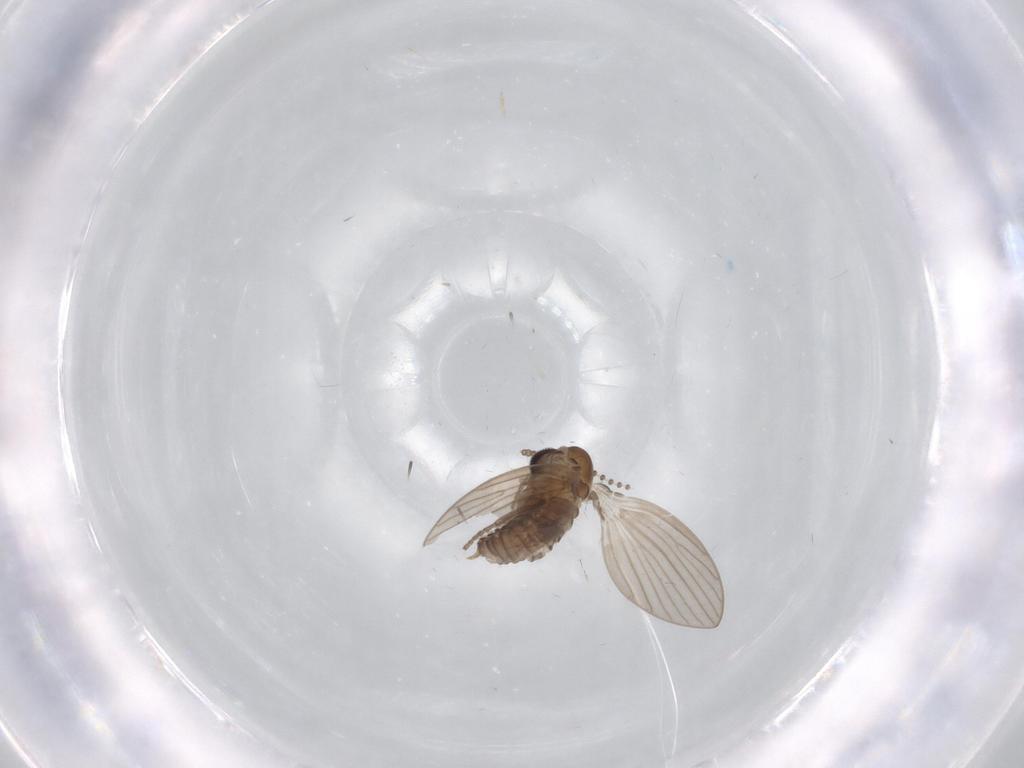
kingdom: Animalia
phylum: Arthropoda
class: Insecta
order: Diptera
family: Psychodidae
